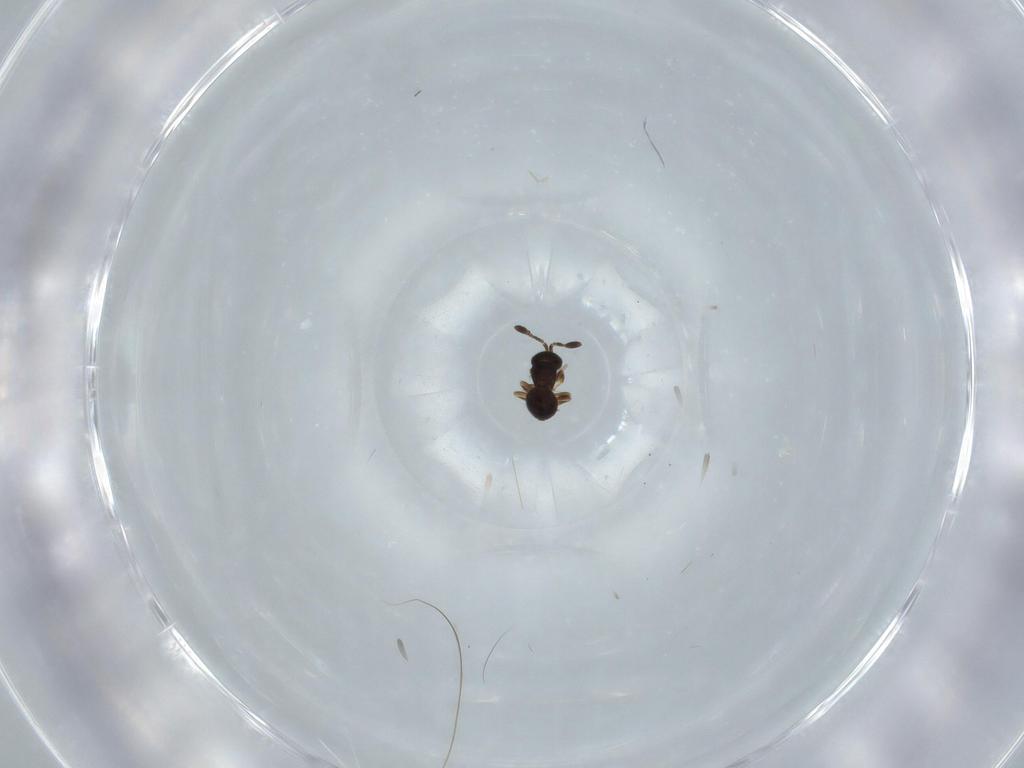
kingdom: Animalia
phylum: Arthropoda
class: Insecta
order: Hymenoptera
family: Scelionidae
